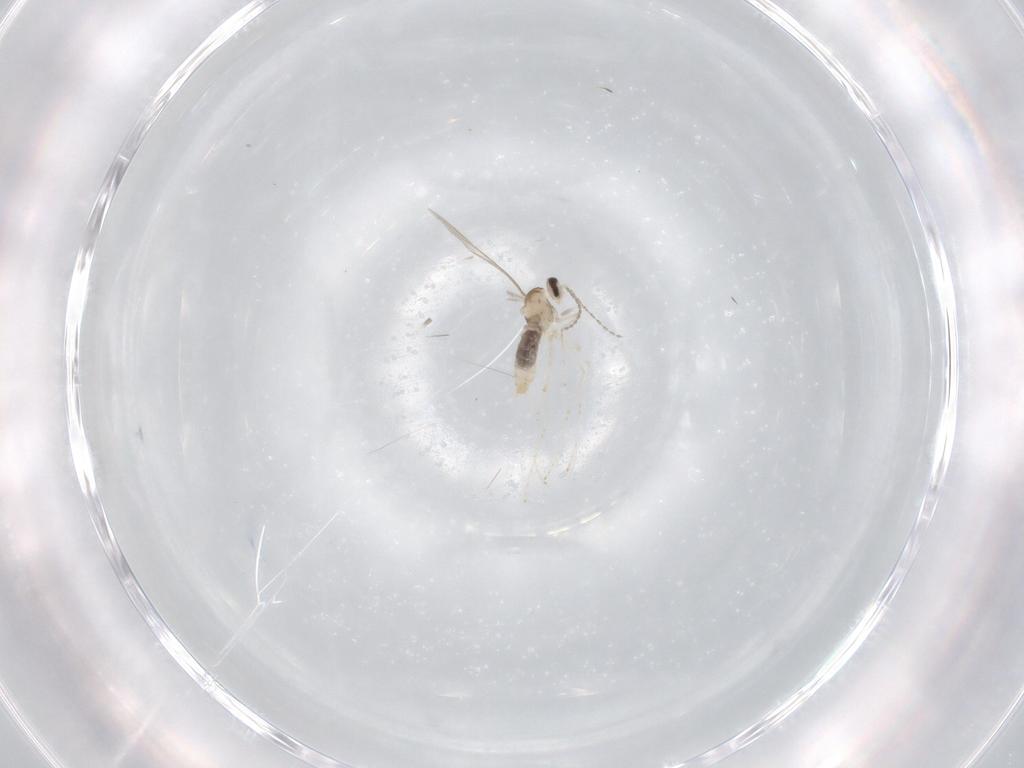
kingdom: Animalia
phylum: Arthropoda
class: Insecta
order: Diptera
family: Cecidomyiidae
